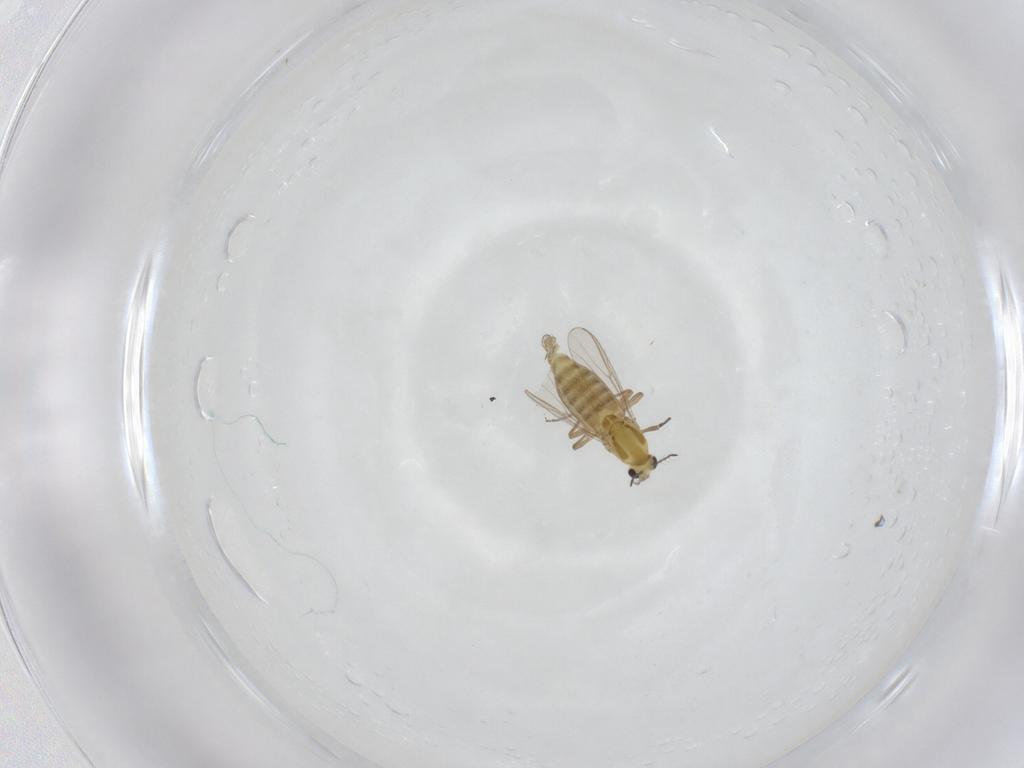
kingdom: Animalia
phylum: Arthropoda
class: Insecta
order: Diptera
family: Chironomidae
